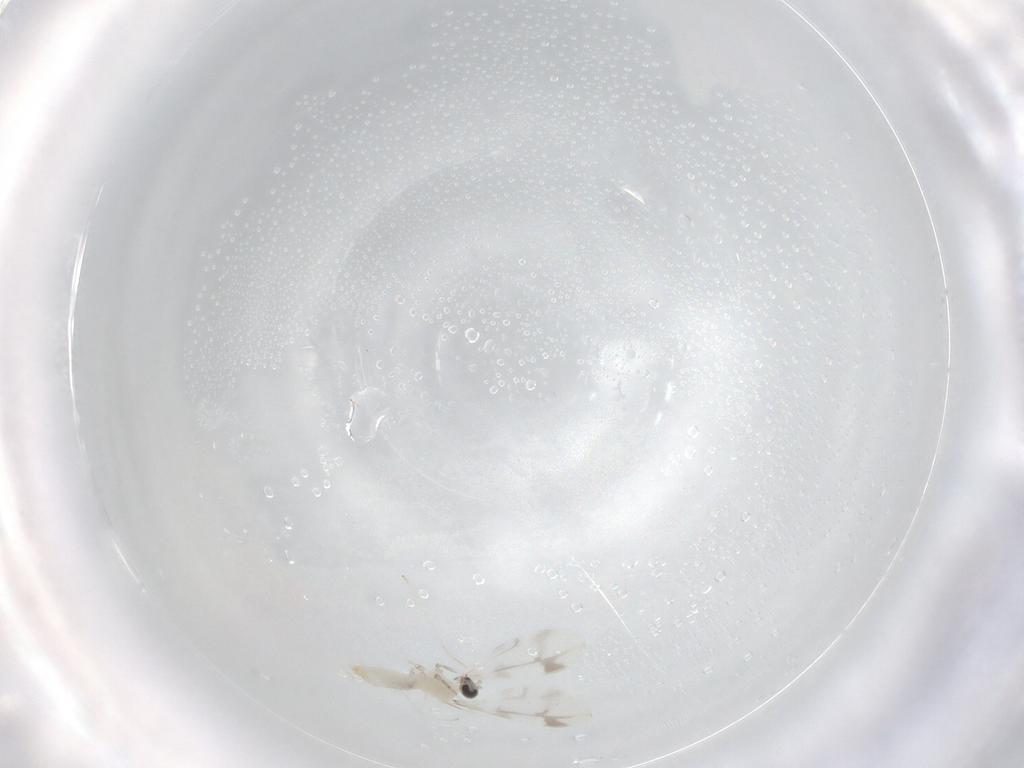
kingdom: Animalia
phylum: Arthropoda
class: Insecta
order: Diptera
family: Cecidomyiidae
